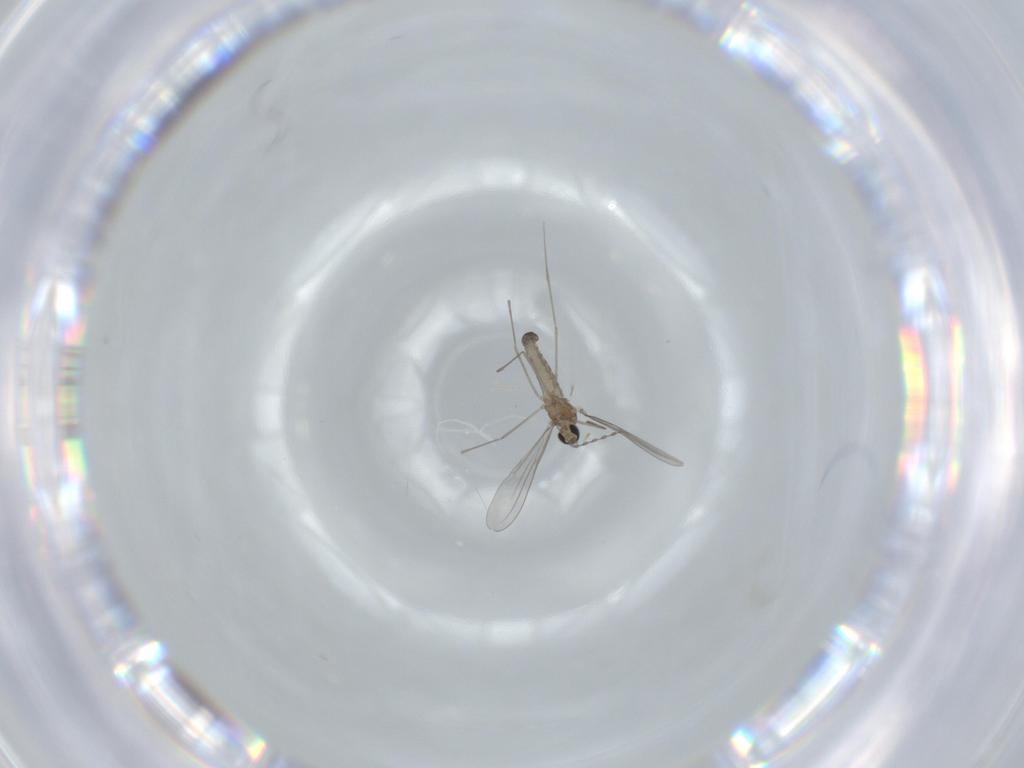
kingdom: Animalia
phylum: Arthropoda
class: Insecta
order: Diptera
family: Cecidomyiidae
